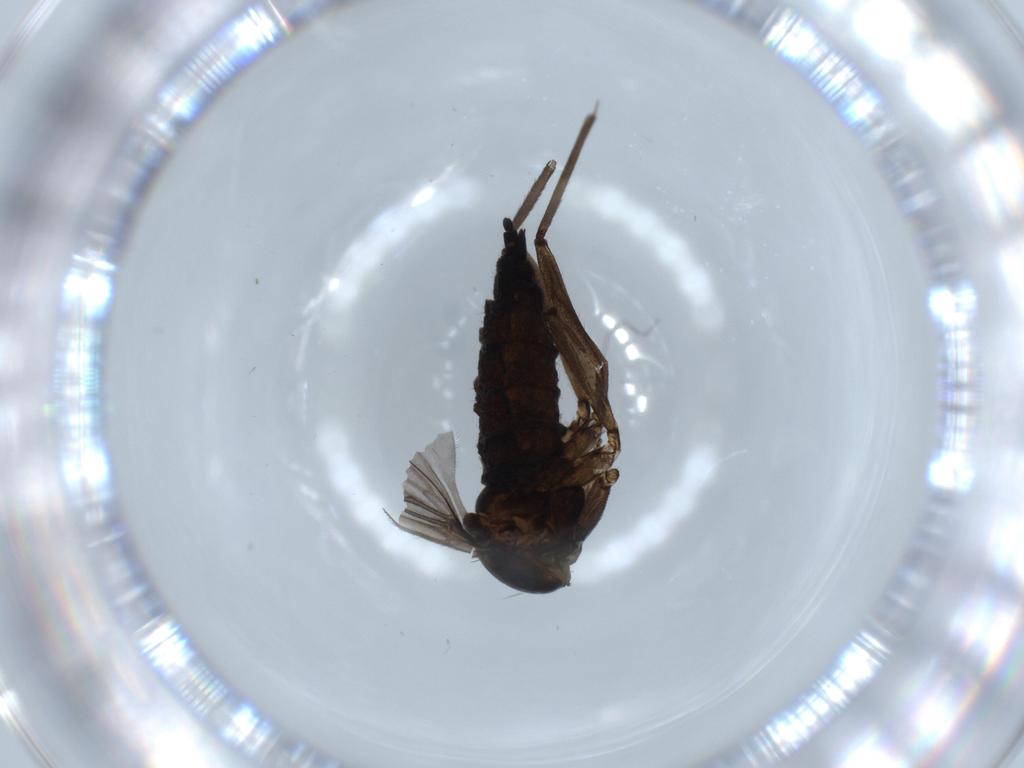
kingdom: Animalia
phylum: Arthropoda
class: Insecta
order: Diptera
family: Sciaridae
